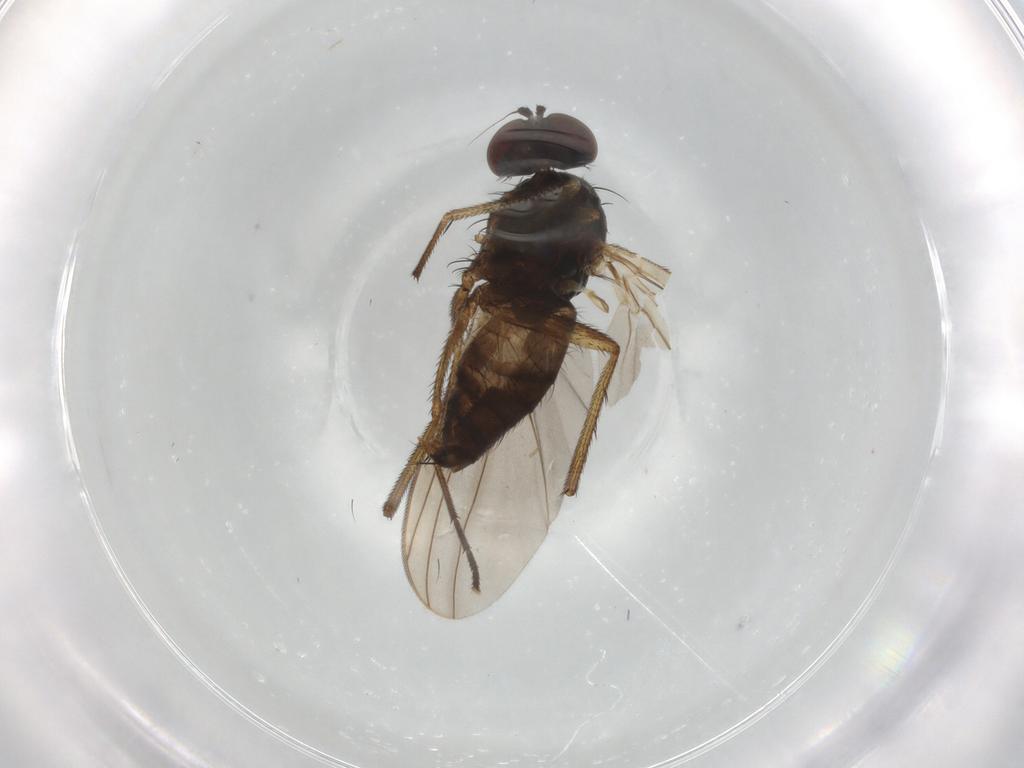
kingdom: Animalia
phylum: Arthropoda
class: Insecta
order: Diptera
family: Dolichopodidae
